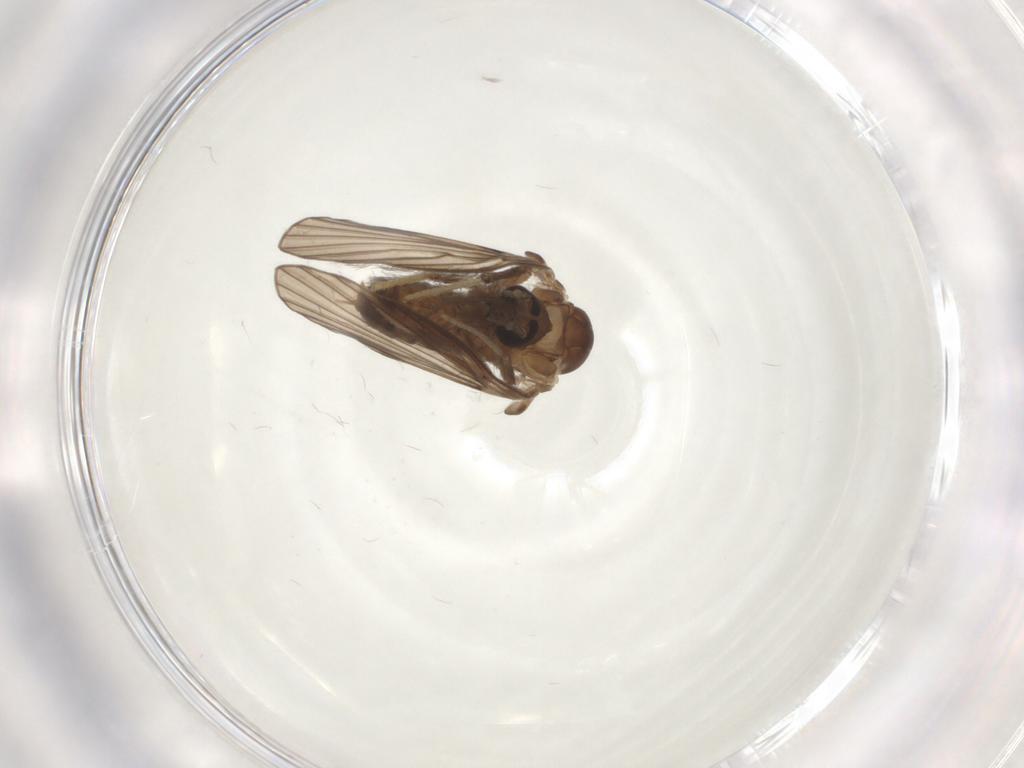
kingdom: Animalia
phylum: Arthropoda
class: Insecta
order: Diptera
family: Psychodidae
